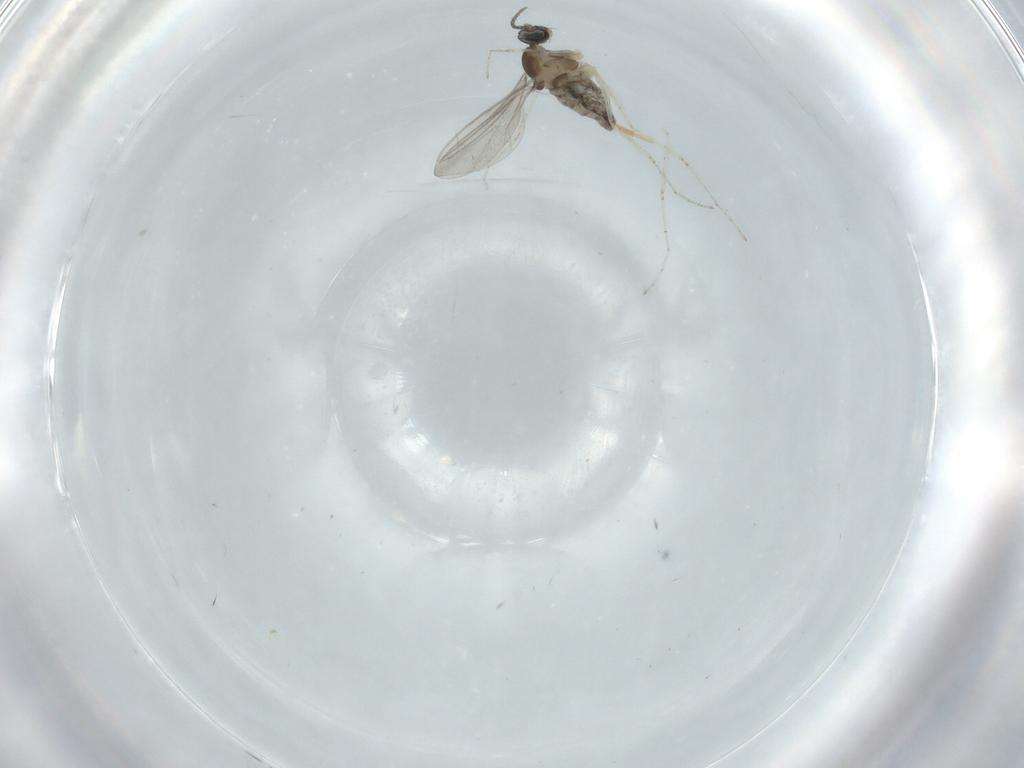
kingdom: Animalia
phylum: Arthropoda
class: Insecta
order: Diptera
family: Cecidomyiidae
